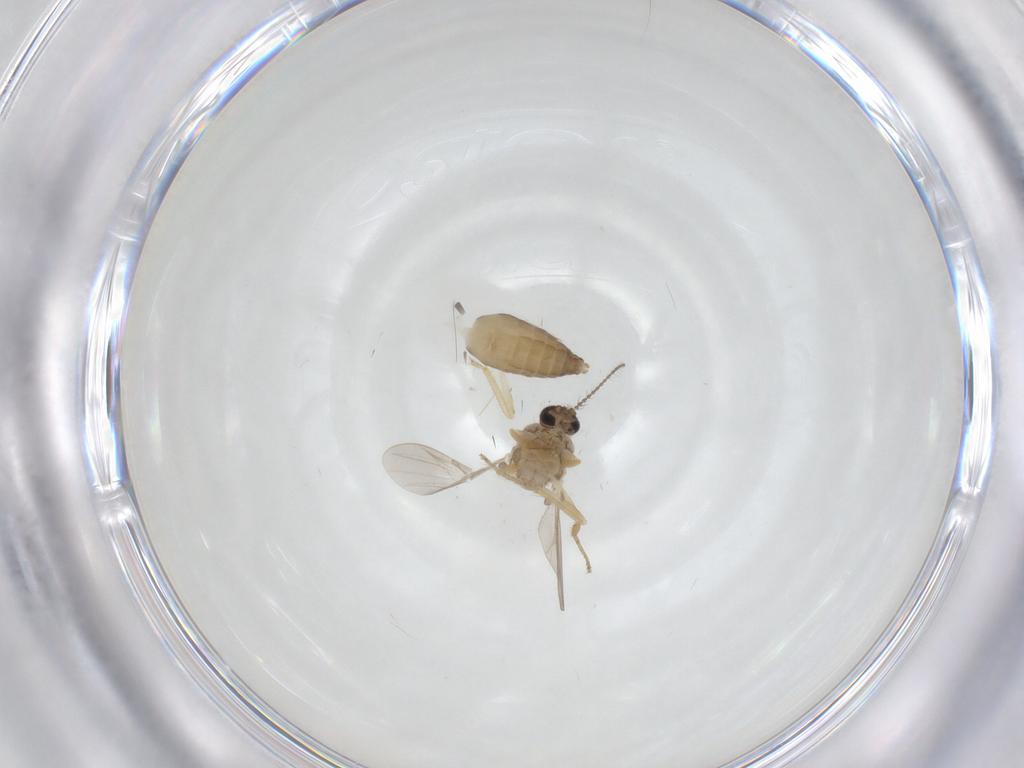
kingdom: Animalia
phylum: Arthropoda
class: Insecta
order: Diptera
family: Ceratopogonidae
